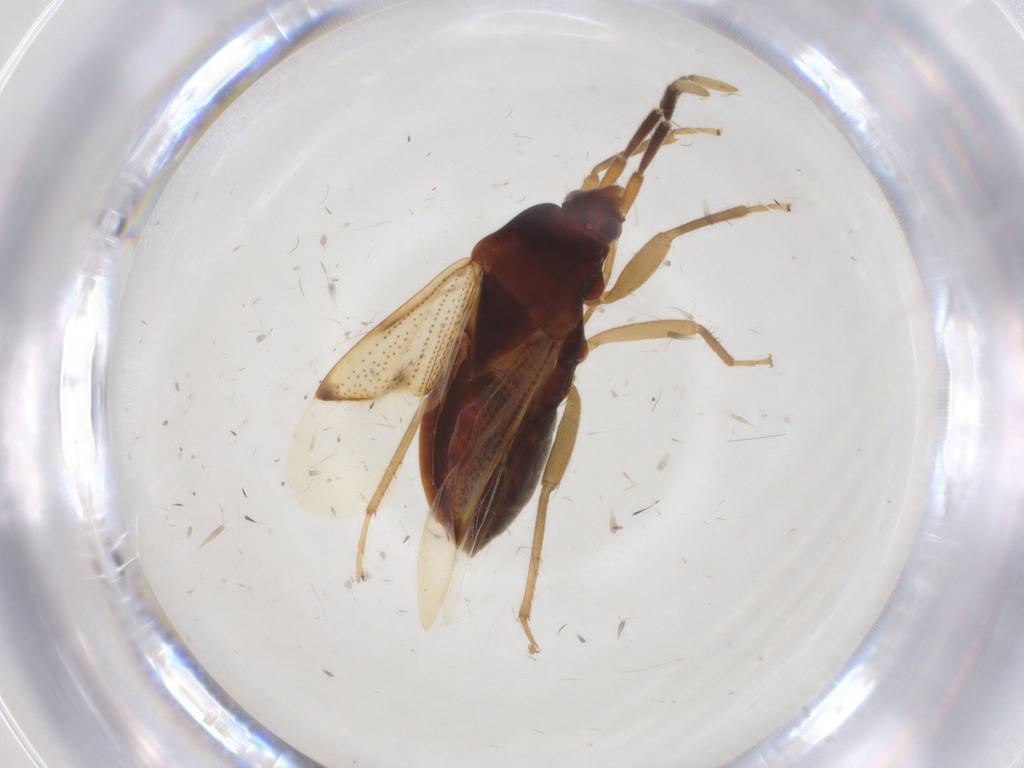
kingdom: Animalia
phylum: Arthropoda
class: Insecta
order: Hemiptera
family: Rhyparochromidae
